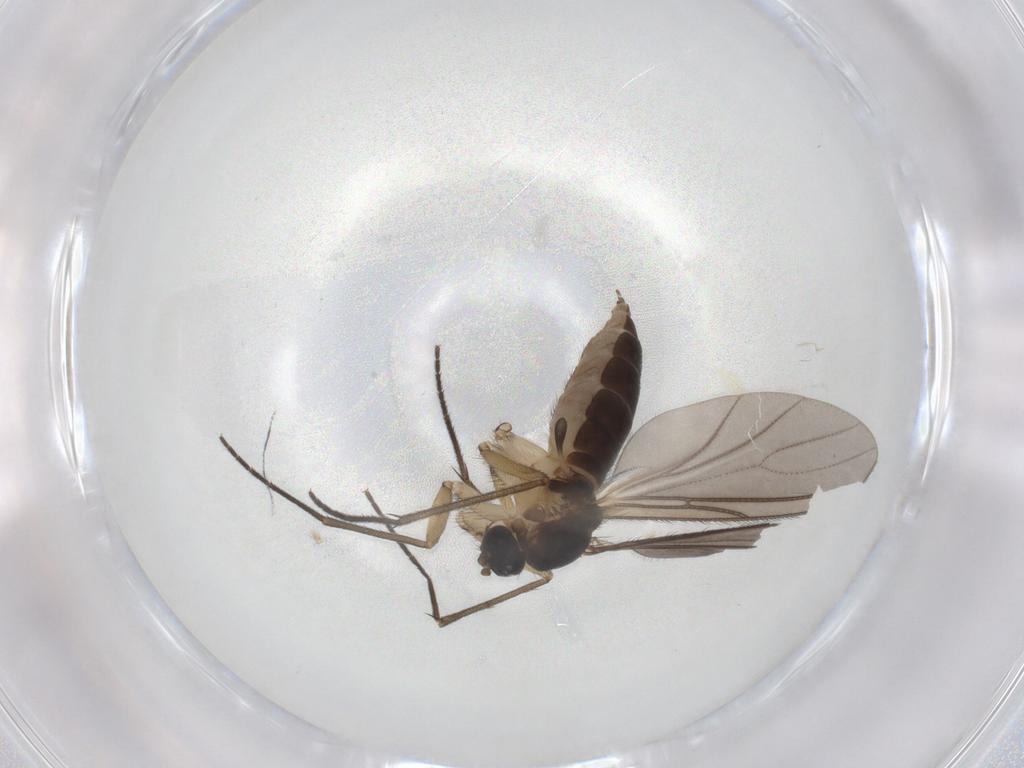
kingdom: Animalia
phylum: Arthropoda
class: Insecta
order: Diptera
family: Sciaridae
